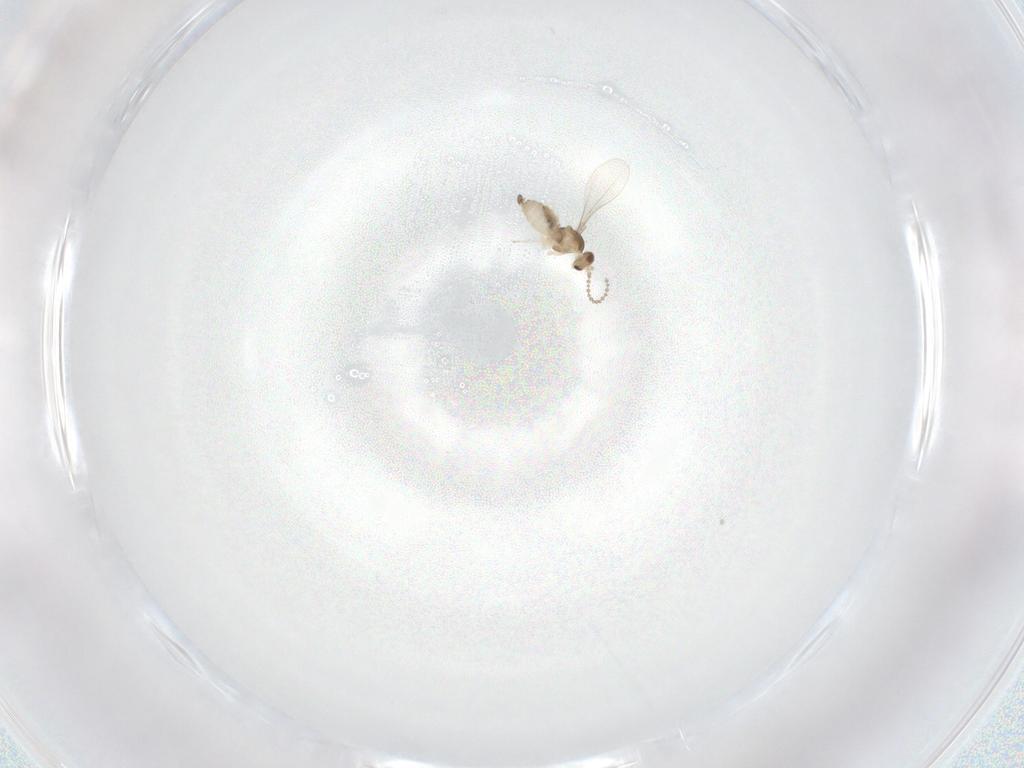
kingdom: Animalia
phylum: Arthropoda
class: Insecta
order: Diptera
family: Cecidomyiidae
